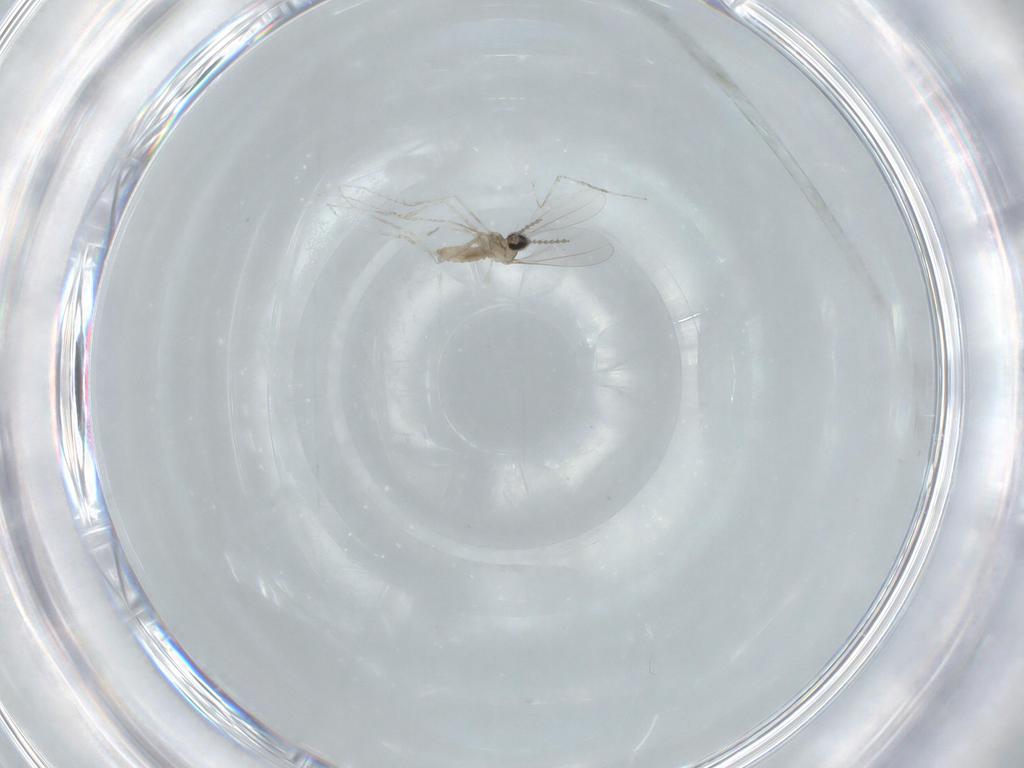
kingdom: Animalia
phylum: Arthropoda
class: Insecta
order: Diptera
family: Cecidomyiidae
